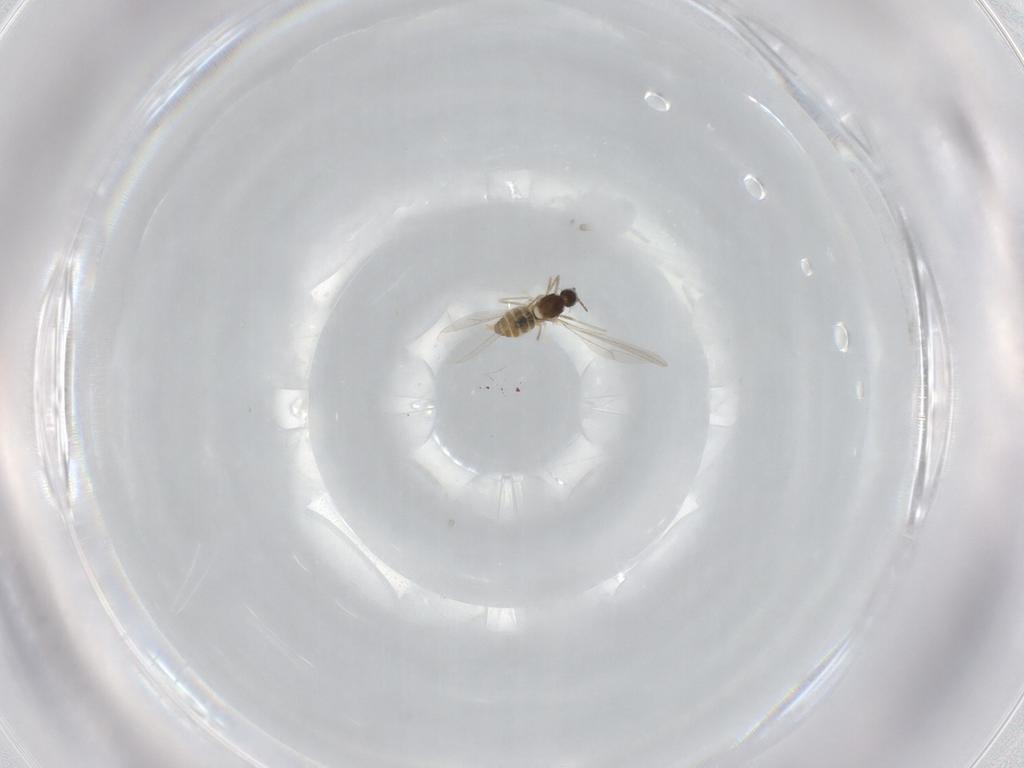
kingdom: Animalia
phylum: Arthropoda
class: Insecta
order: Diptera
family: Cecidomyiidae
